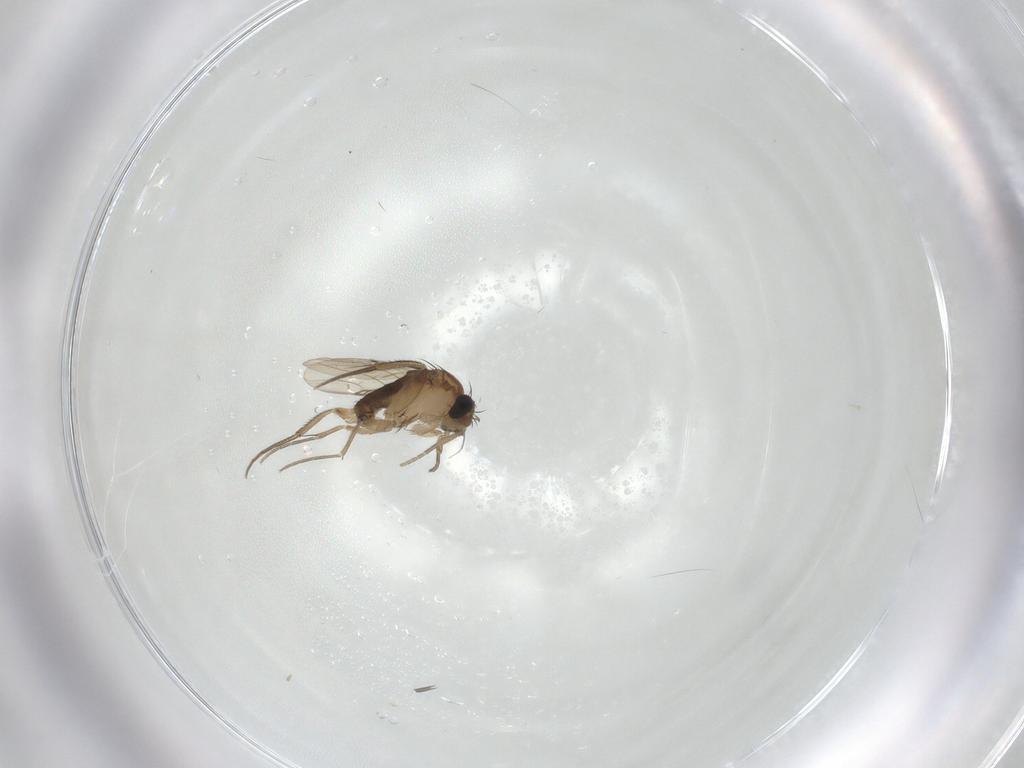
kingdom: Animalia
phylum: Arthropoda
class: Insecta
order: Diptera
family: Phoridae
